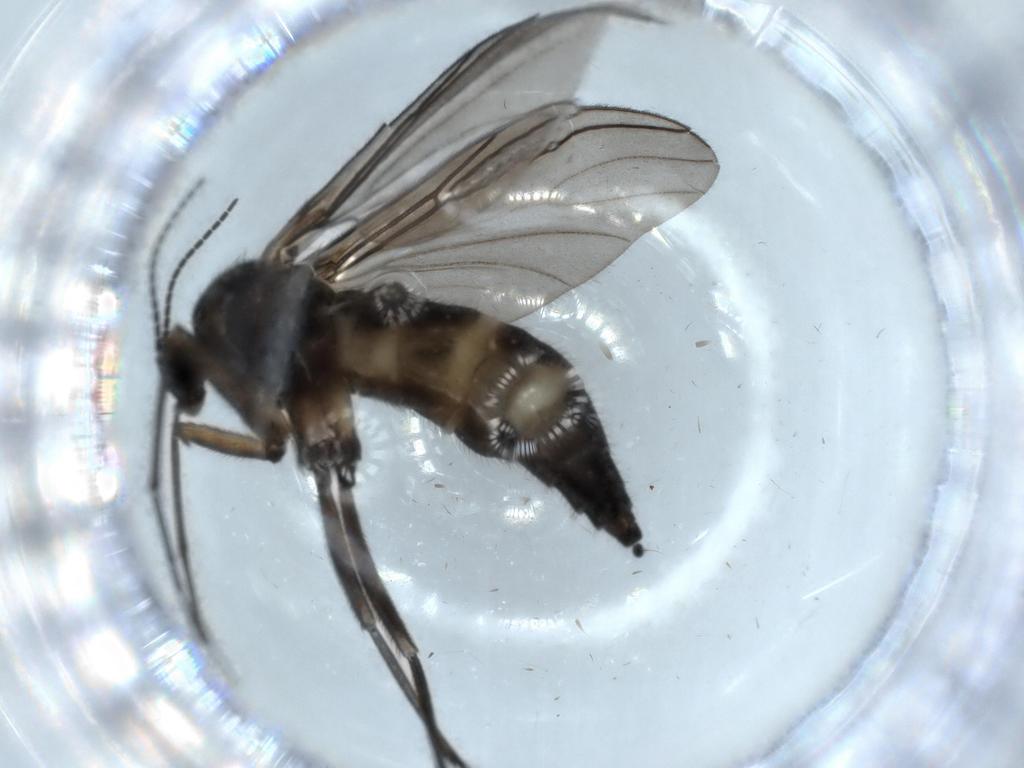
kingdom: Animalia
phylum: Arthropoda
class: Insecta
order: Diptera
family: Sciaridae
